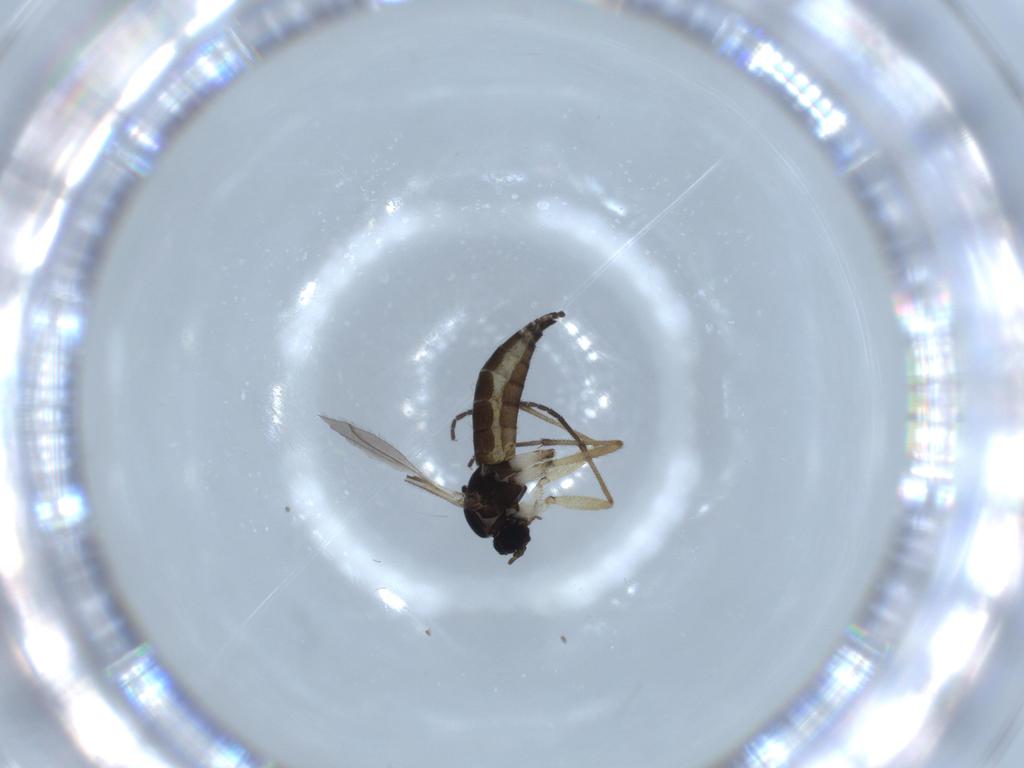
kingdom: Animalia
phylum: Arthropoda
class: Insecta
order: Diptera
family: Sciaridae
